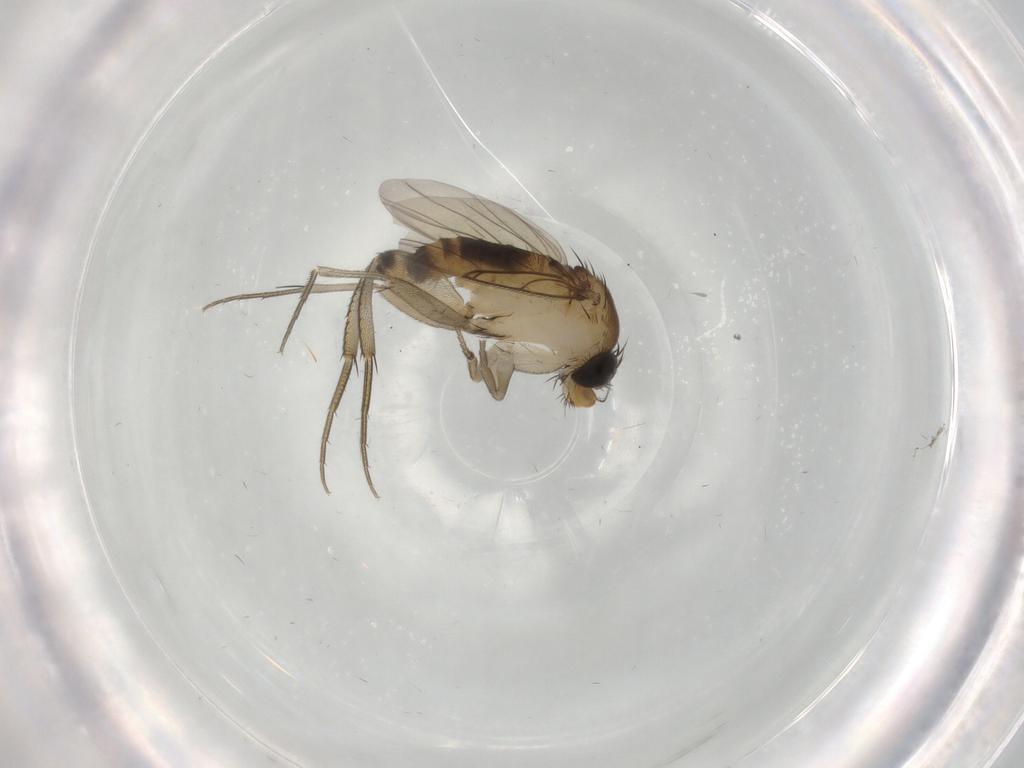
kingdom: Animalia
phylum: Arthropoda
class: Insecta
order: Diptera
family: Phoridae
